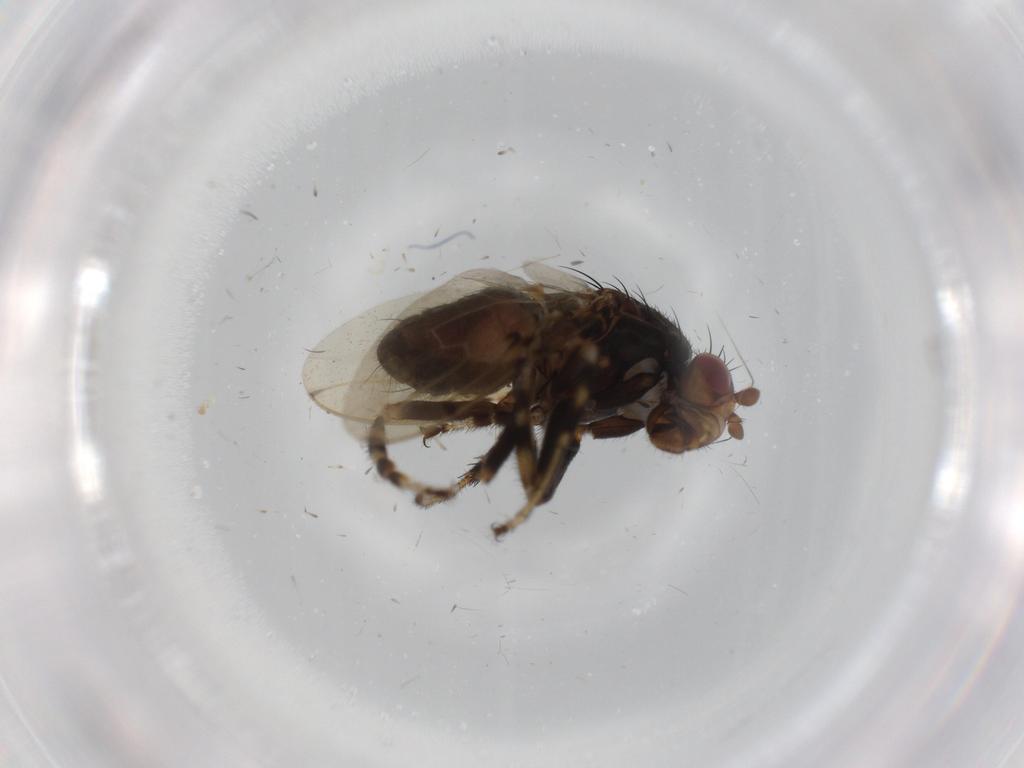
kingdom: Animalia
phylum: Arthropoda
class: Insecta
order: Diptera
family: Sphaeroceridae
